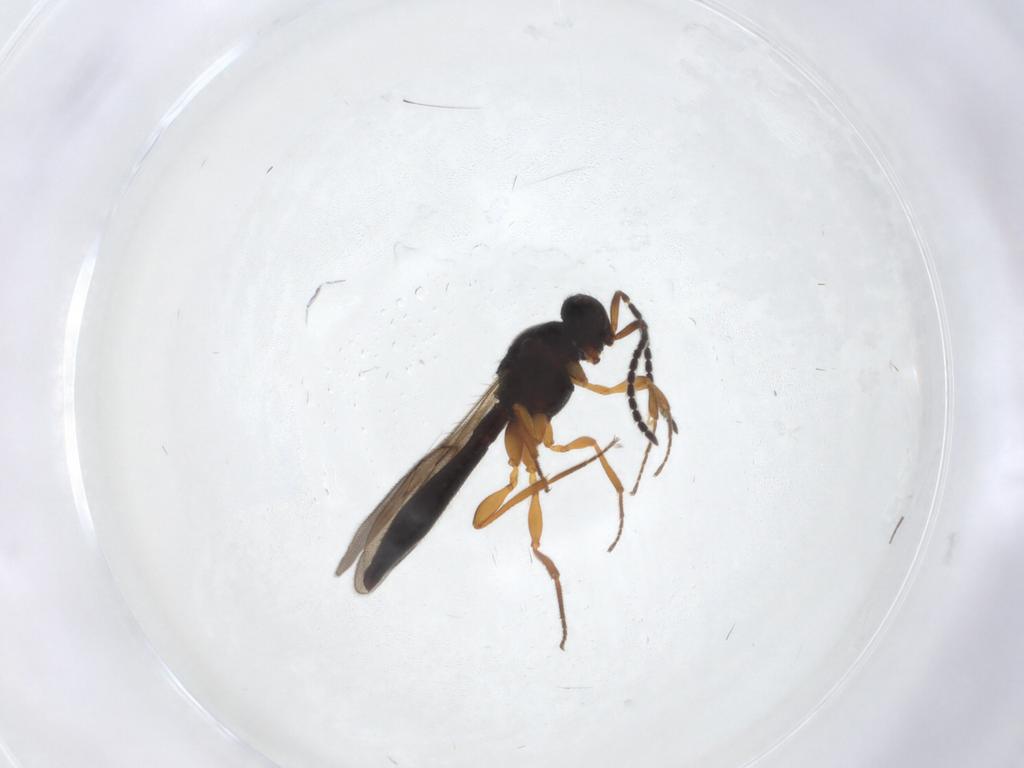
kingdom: Animalia
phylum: Arthropoda
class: Insecta
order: Hymenoptera
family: Scelionidae
